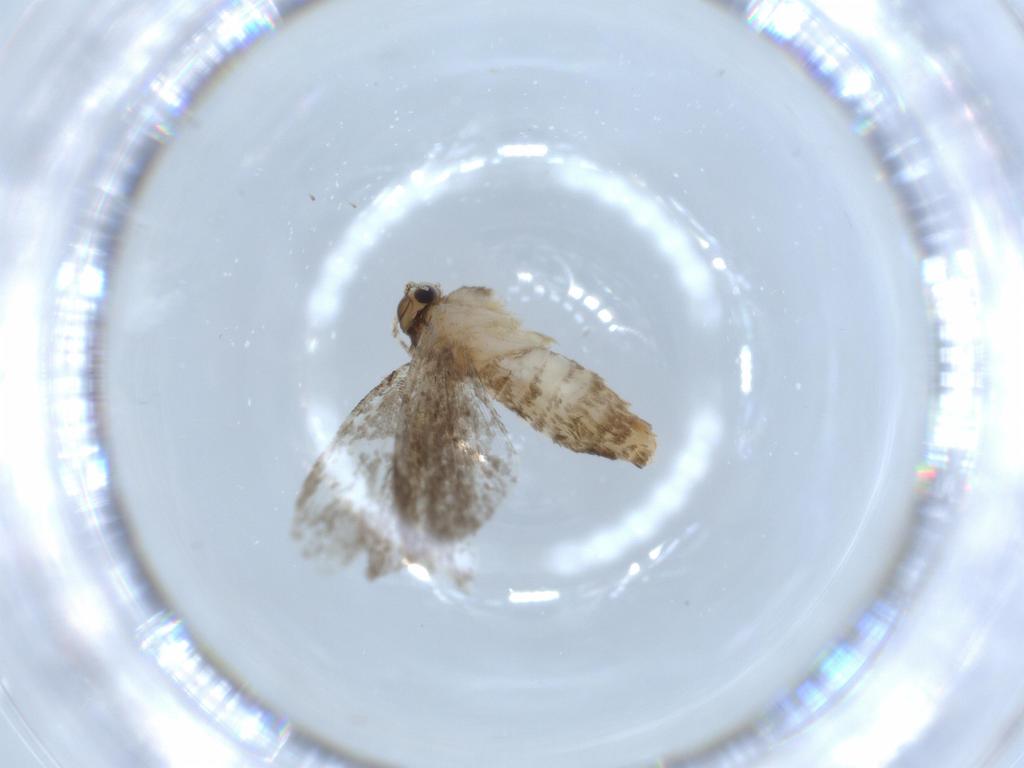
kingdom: Animalia
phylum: Arthropoda
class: Insecta
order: Lepidoptera
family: Tineidae
